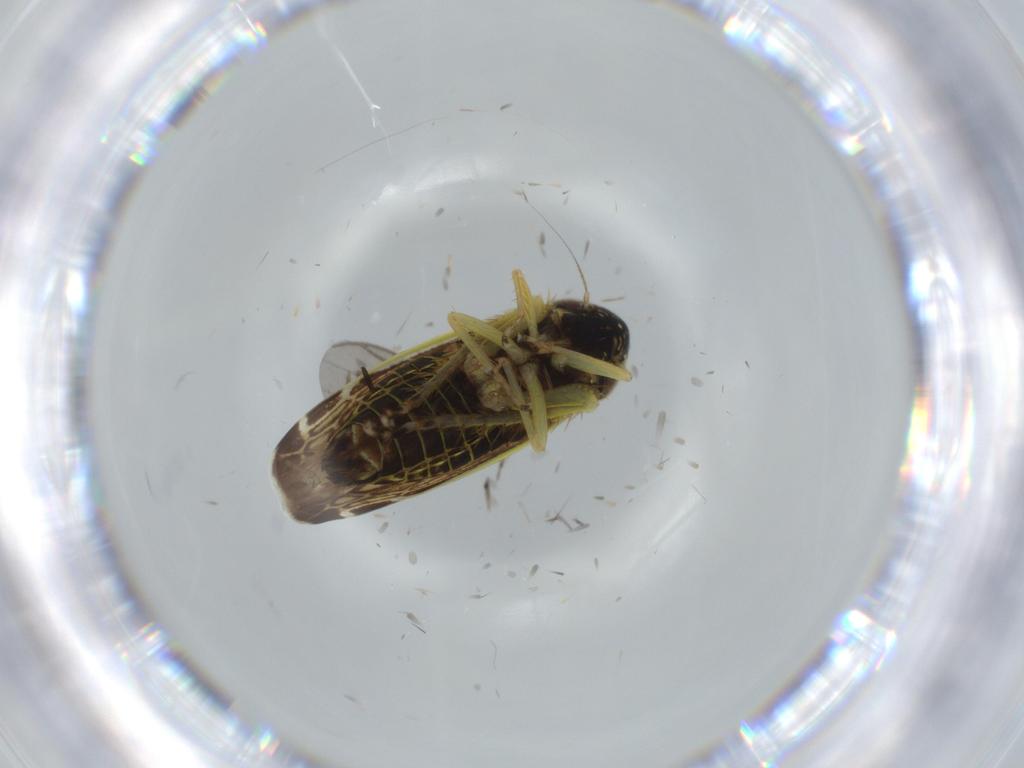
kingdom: Animalia
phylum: Arthropoda
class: Insecta
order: Hemiptera
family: Cicadellidae
